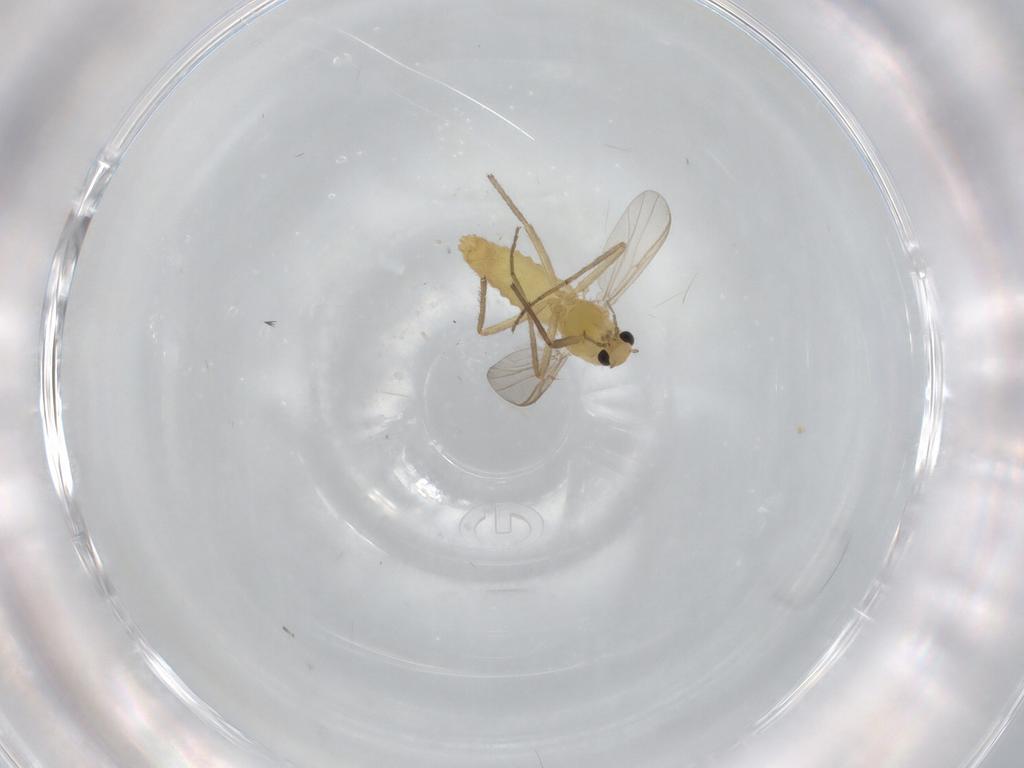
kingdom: Animalia
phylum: Arthropoda
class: Insecta
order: Diptera
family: Chironomidae
